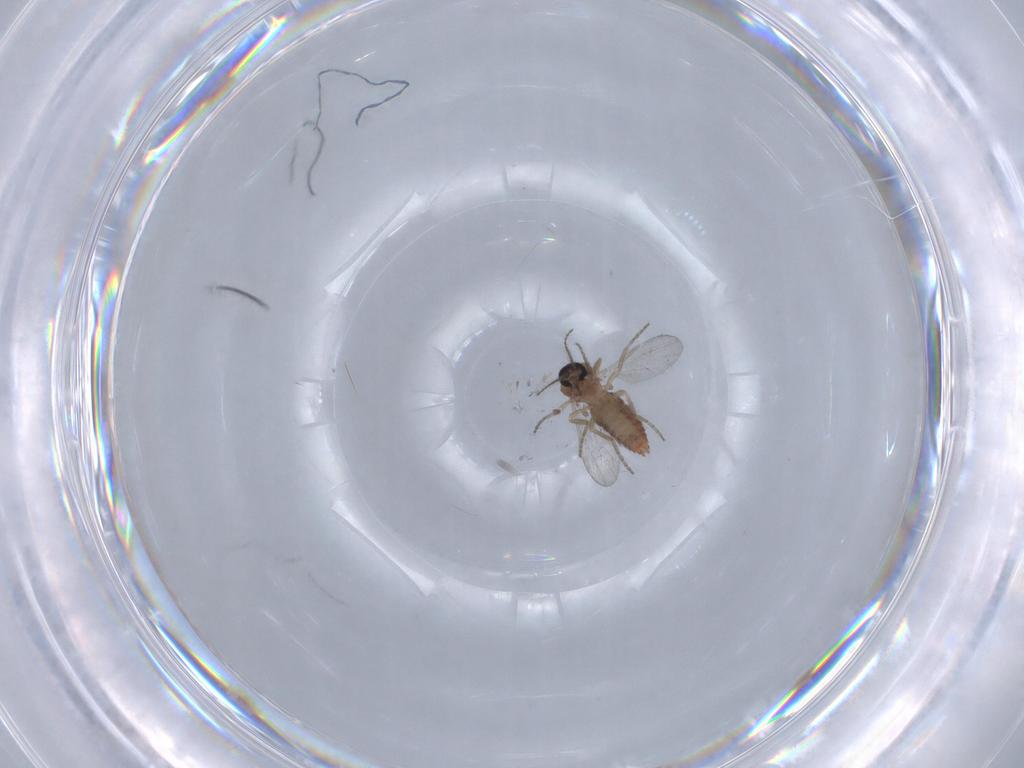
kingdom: Animalia
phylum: Arthropoda
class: Insecta
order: Diptera
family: Ceratopogonidae
